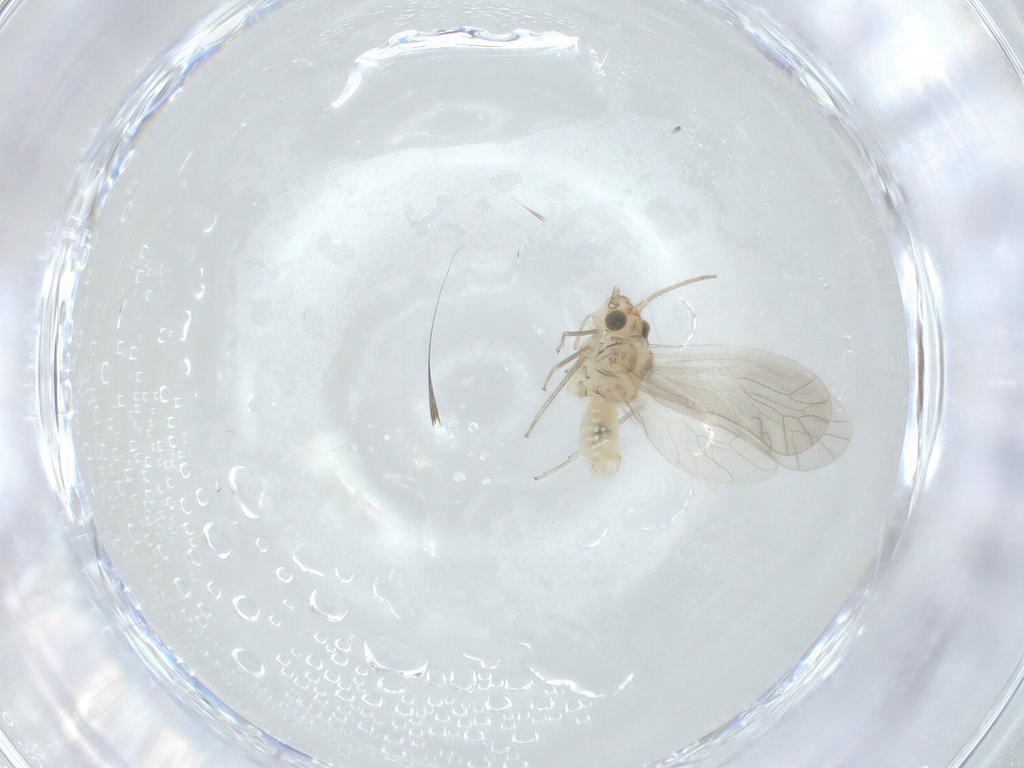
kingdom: Animalia
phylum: Arthropoda
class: Insecta
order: Psocodea
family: Caeciliusidae
